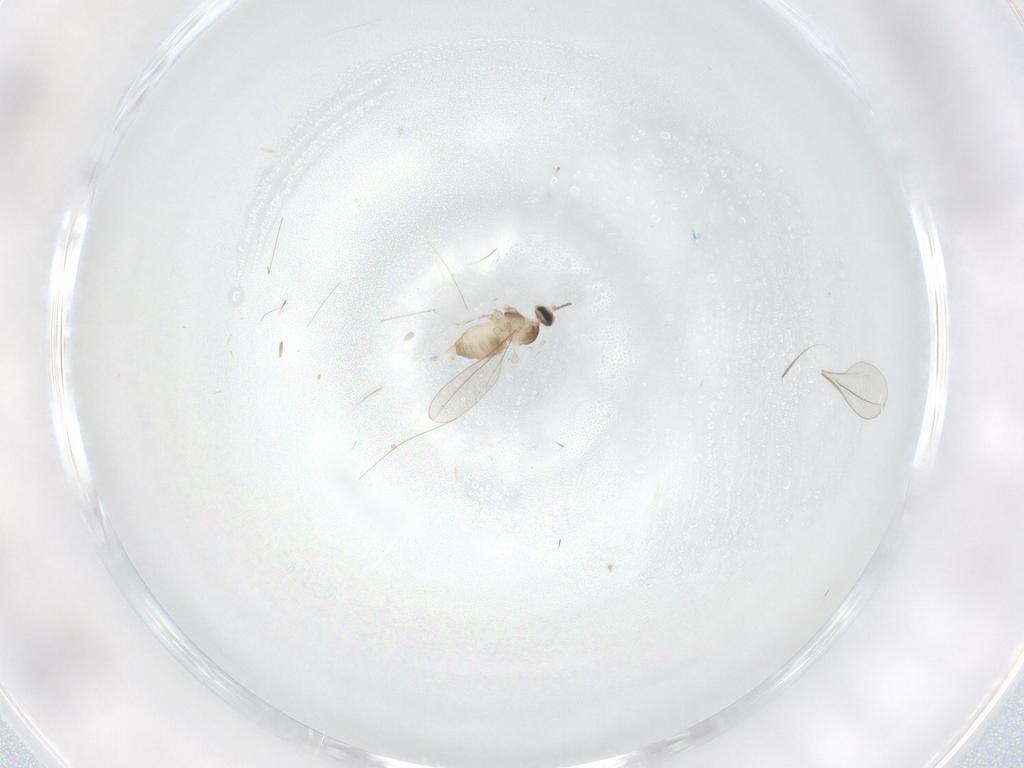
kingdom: Animalia
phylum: Arthropoda
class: Insecta
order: Diptera
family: Cecidomyiidae
